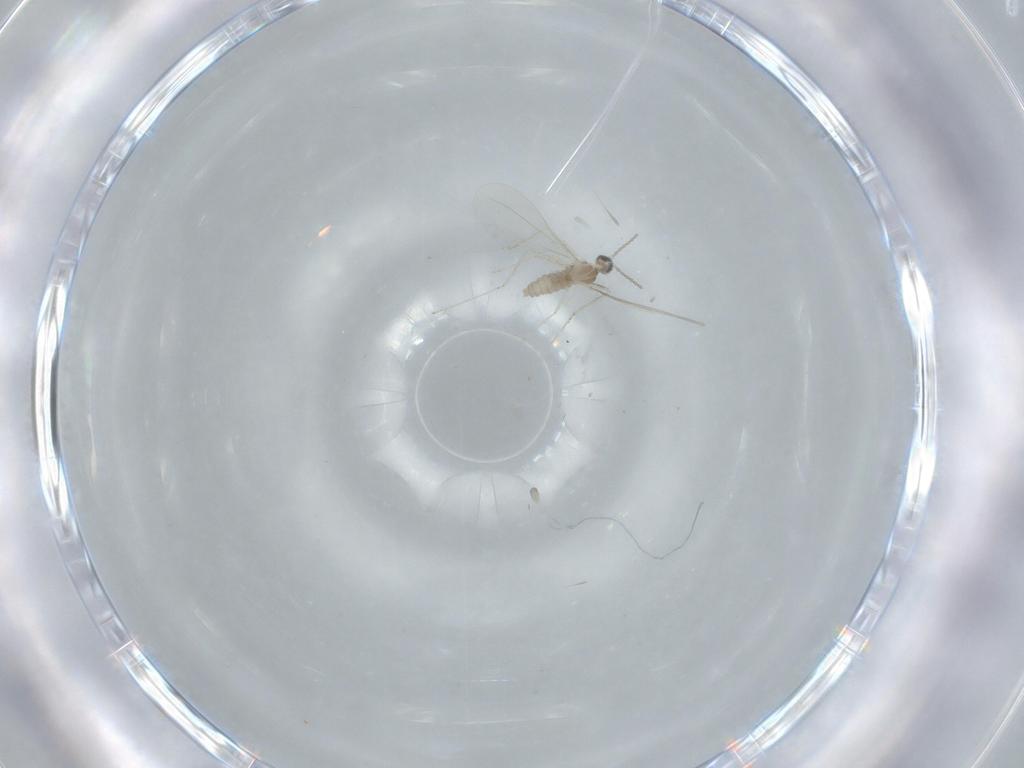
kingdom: Animalia
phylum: Arthropoda
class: Insecta
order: Diptera
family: Cecidomyiidae
